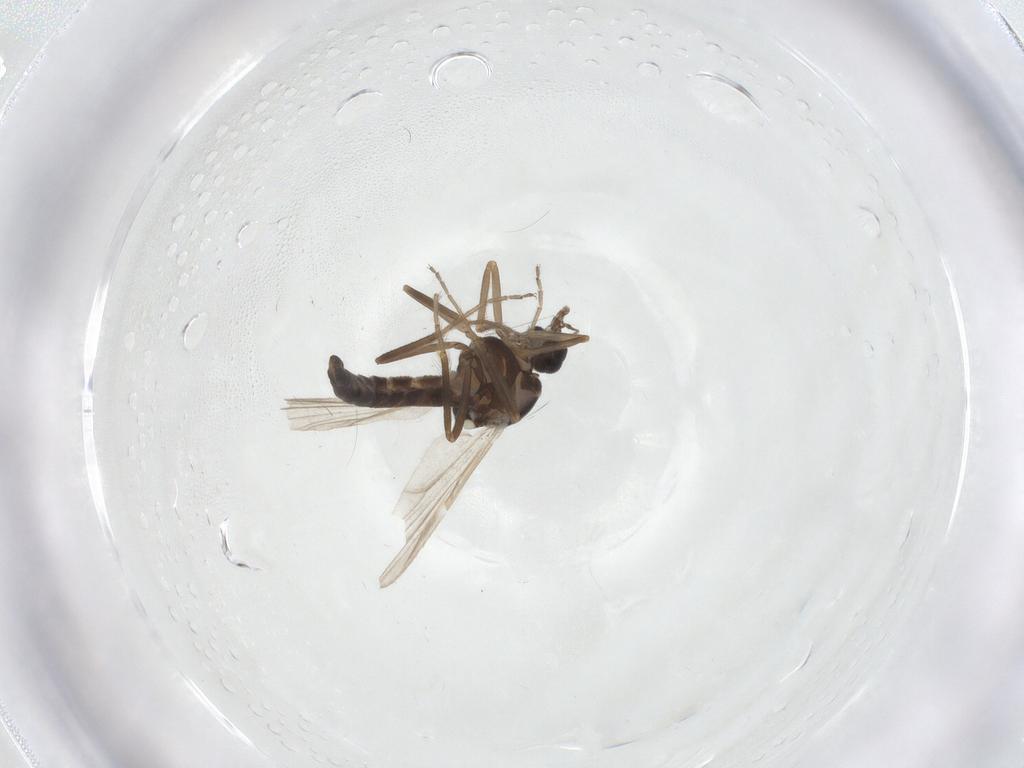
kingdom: Animalia
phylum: Arthropoda
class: Insecta
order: Diptera
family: Ceratopogonidae
